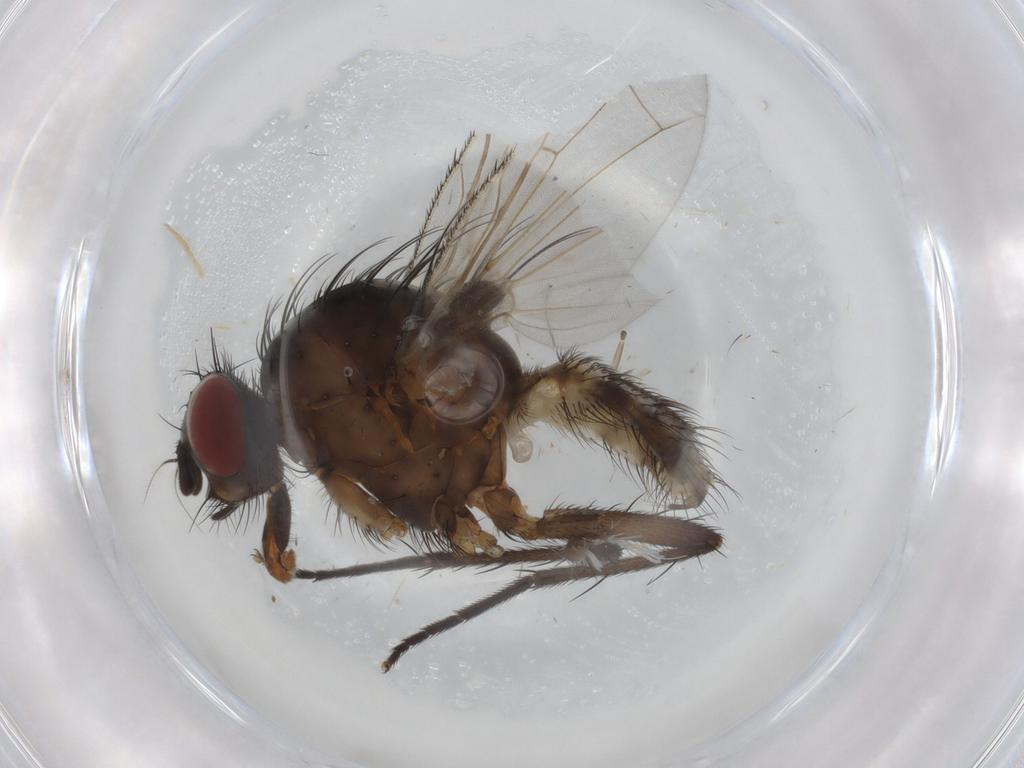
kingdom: Animalia
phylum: Arthropoda
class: Insecta
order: Diptera
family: Anthomyiidae
